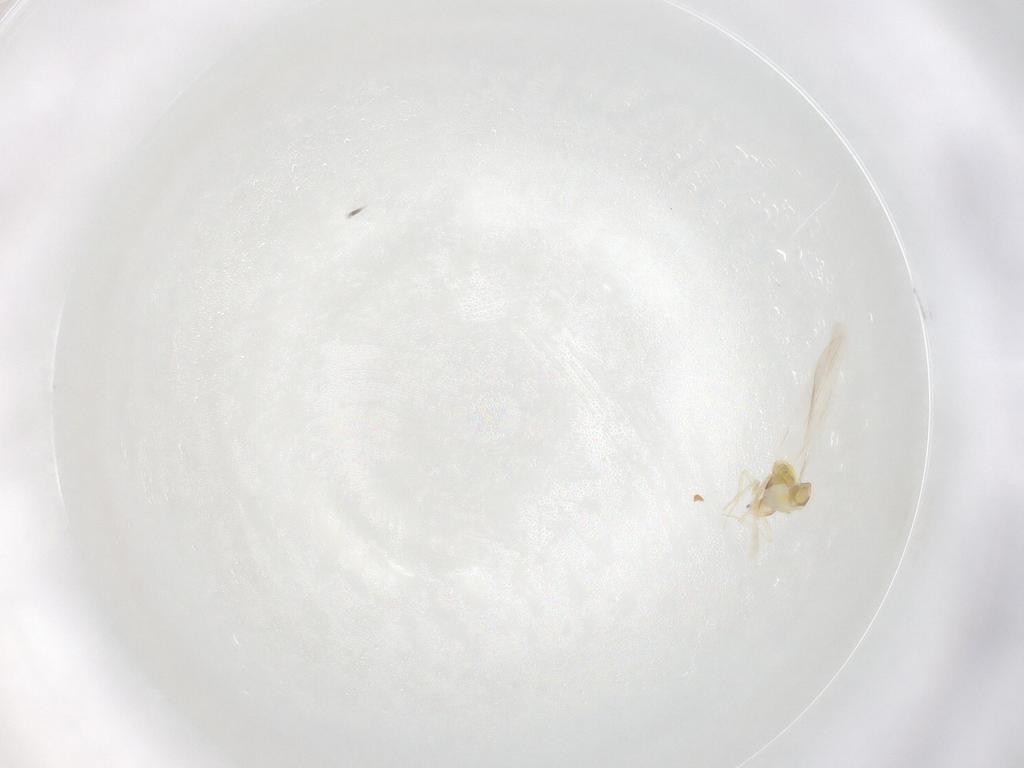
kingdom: Animalia
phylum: Arthropoda
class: Insecta
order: Hemiptera
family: Aleyrodidae
